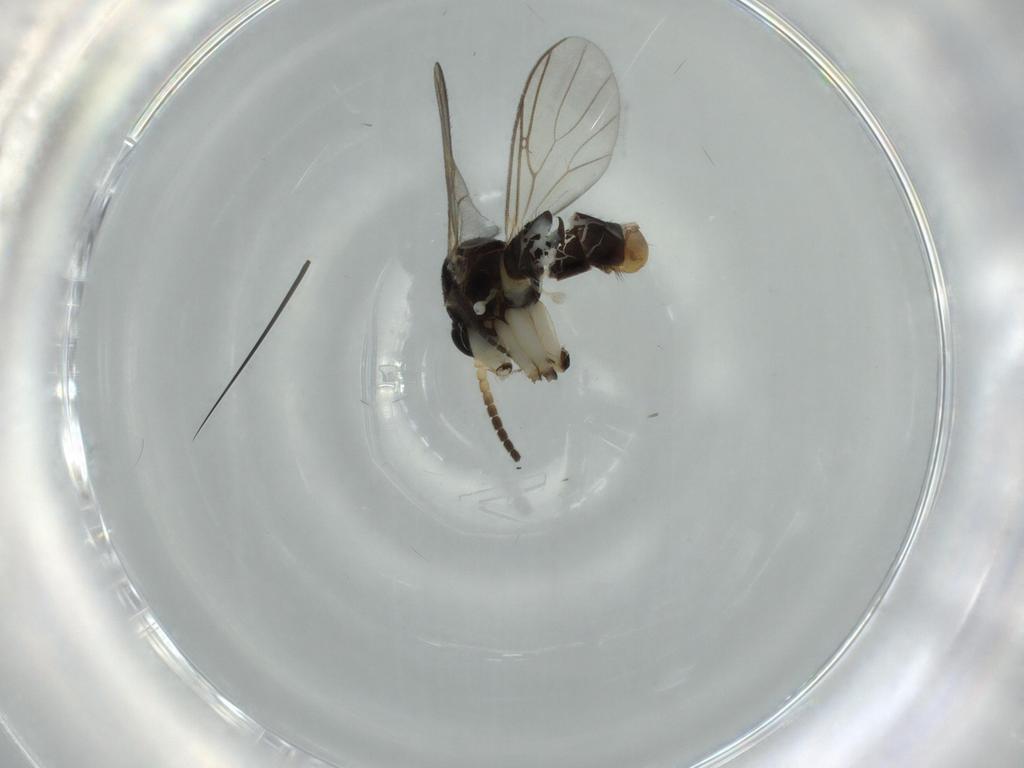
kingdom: Animalia
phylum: Arthropoda
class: Insecta
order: Diptera
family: Mycetophilidae
